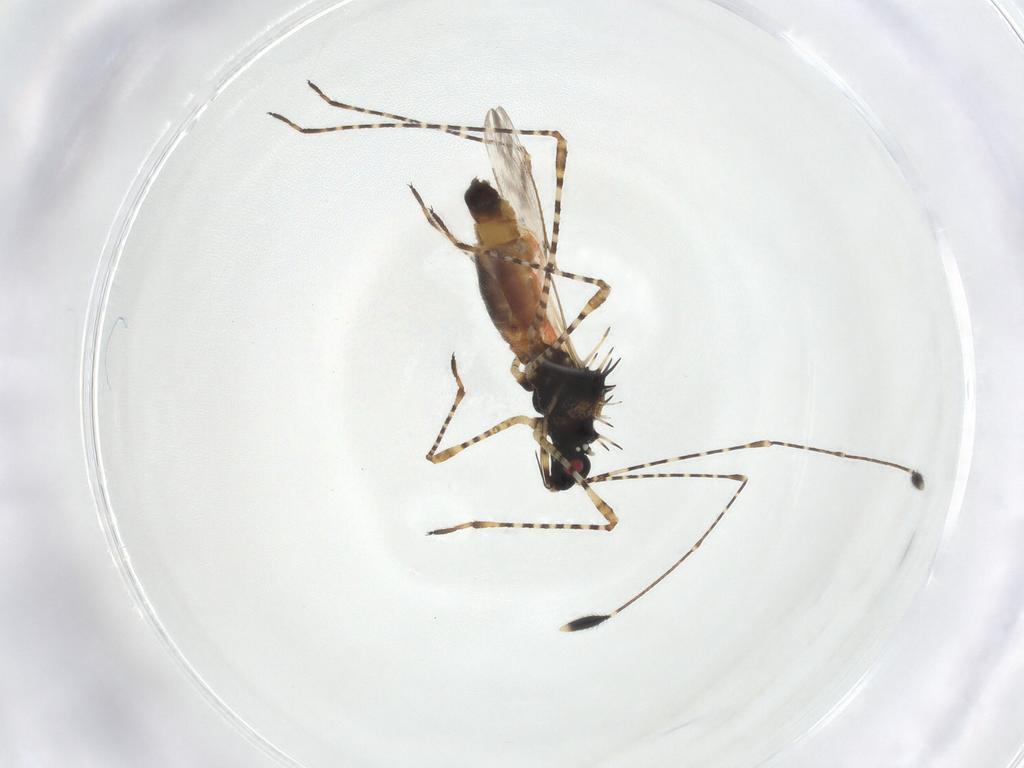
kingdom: Animalia
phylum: Arthropoda
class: Insecta
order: Hemiptera
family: Berytidae
